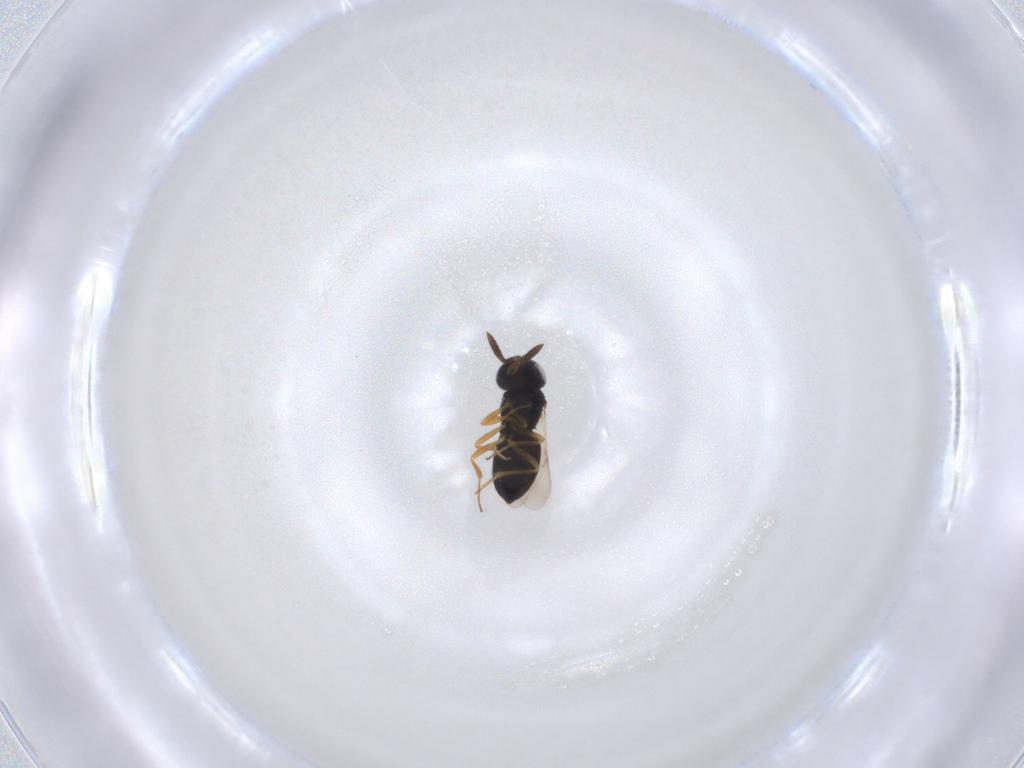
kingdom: Animalia
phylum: Arthropoda
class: Insecta
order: Hymenoptera
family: Scelionidae
